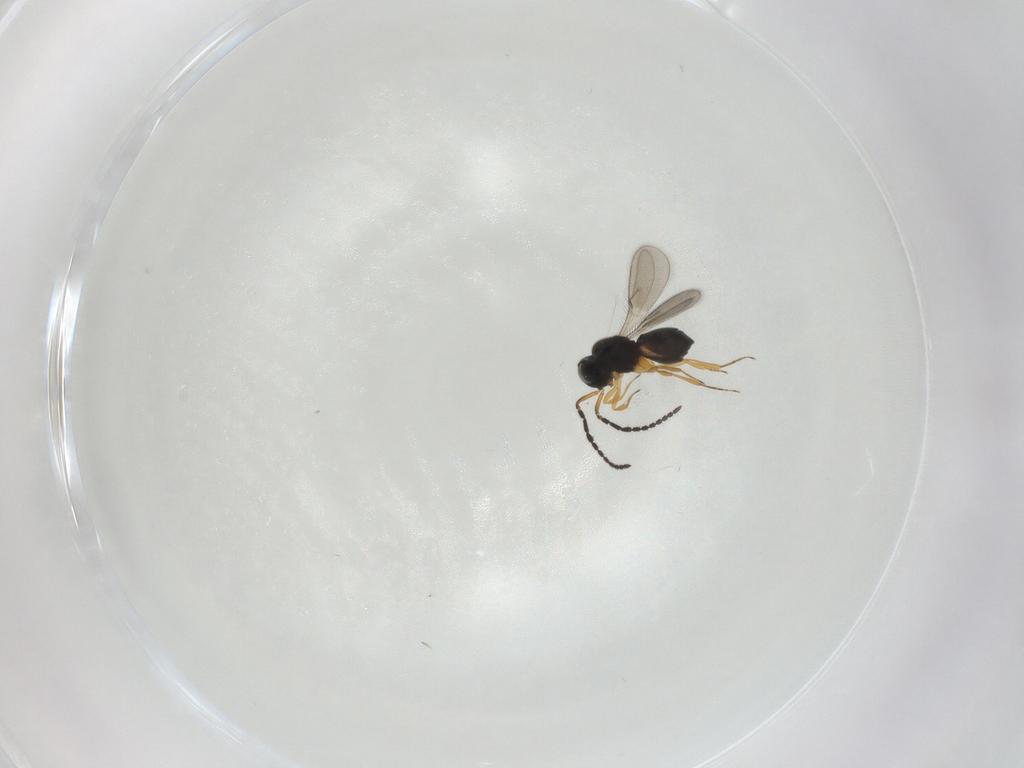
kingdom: Animalia
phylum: Arthropoda
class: Insecta
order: Hymenoptera
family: Scelionidae
